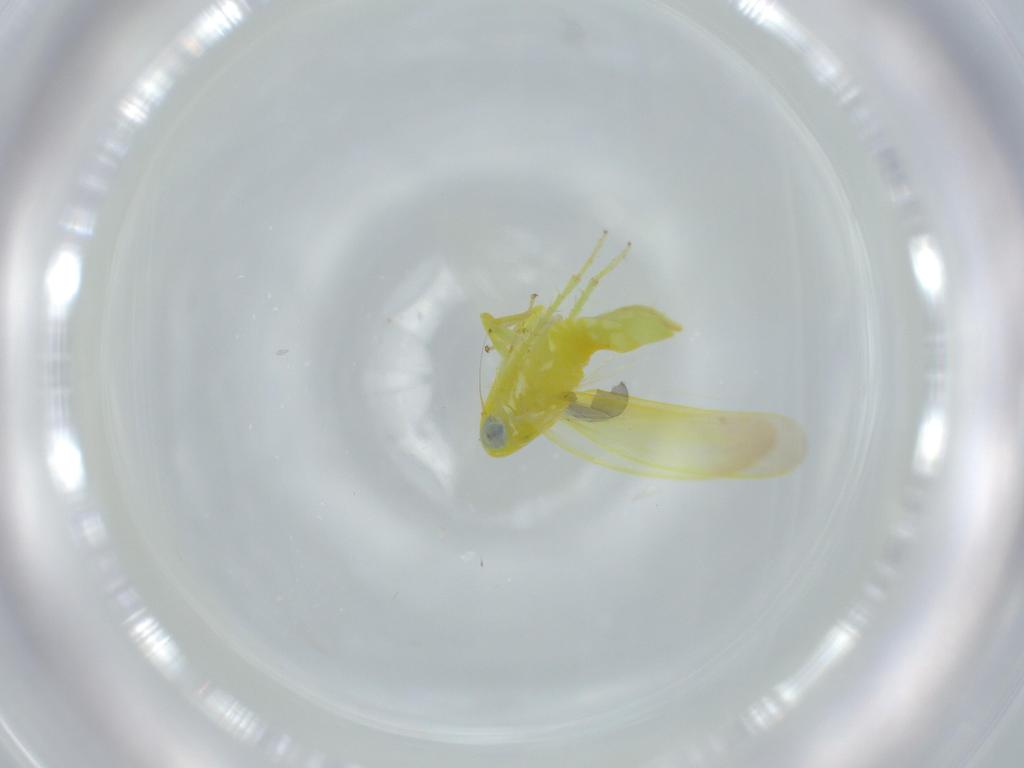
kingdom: Animalia
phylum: Arthropoda
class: Insecta
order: Hemiptera
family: Cicadellidae
